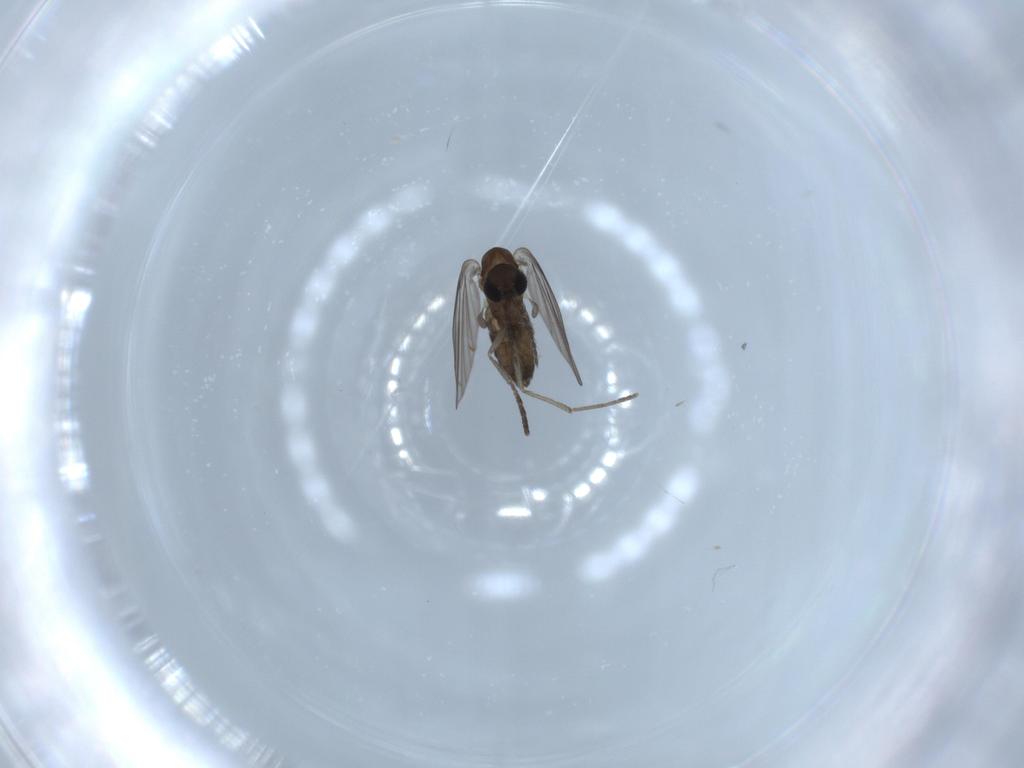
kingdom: Animalia
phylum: Arthropoda
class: Insecta
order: Diptera
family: Psychodidae
